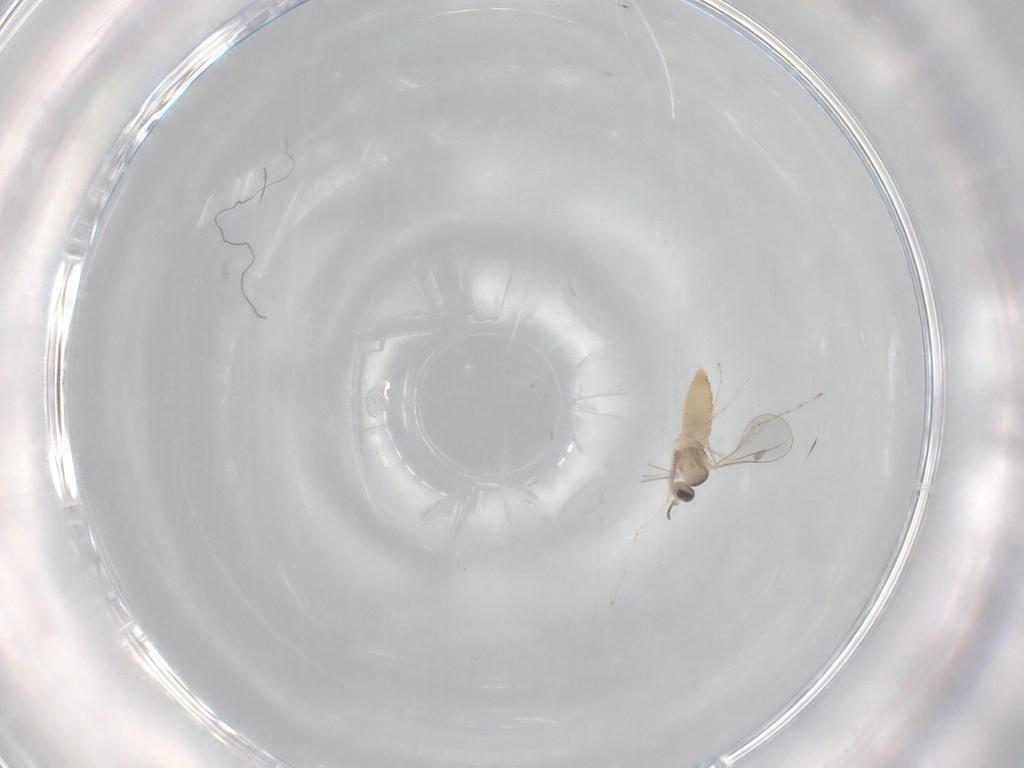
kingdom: Animalia
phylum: Arthropoda
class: Insecta
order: Diptera
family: Cecidomyiidae
